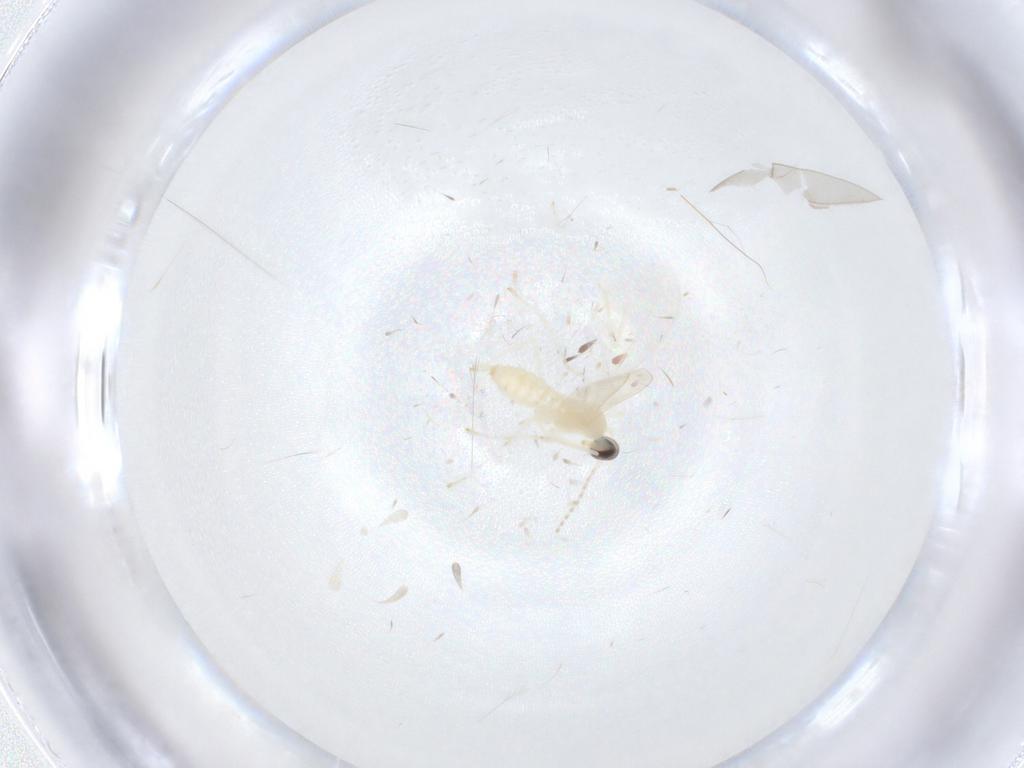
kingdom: Animalia
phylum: Arthropoda
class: Insecta
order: Diptera
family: Cecidomyiidae
